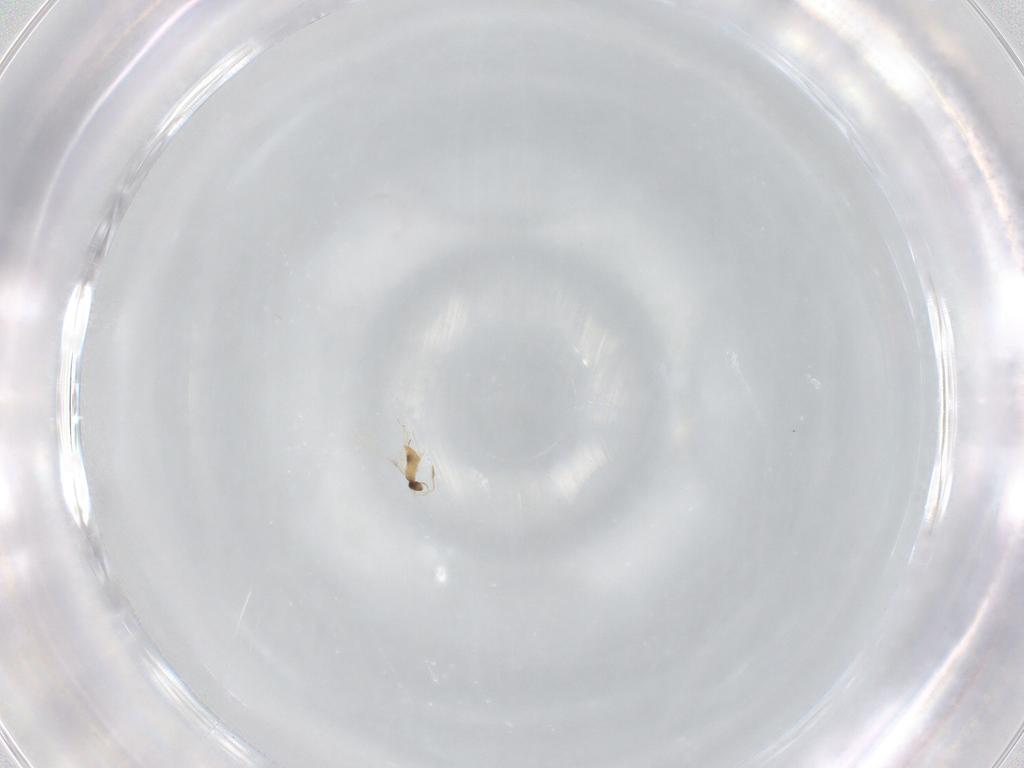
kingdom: Animalia
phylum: Arthropoda
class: Insecta
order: Hymenoptera
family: Mymaridae
